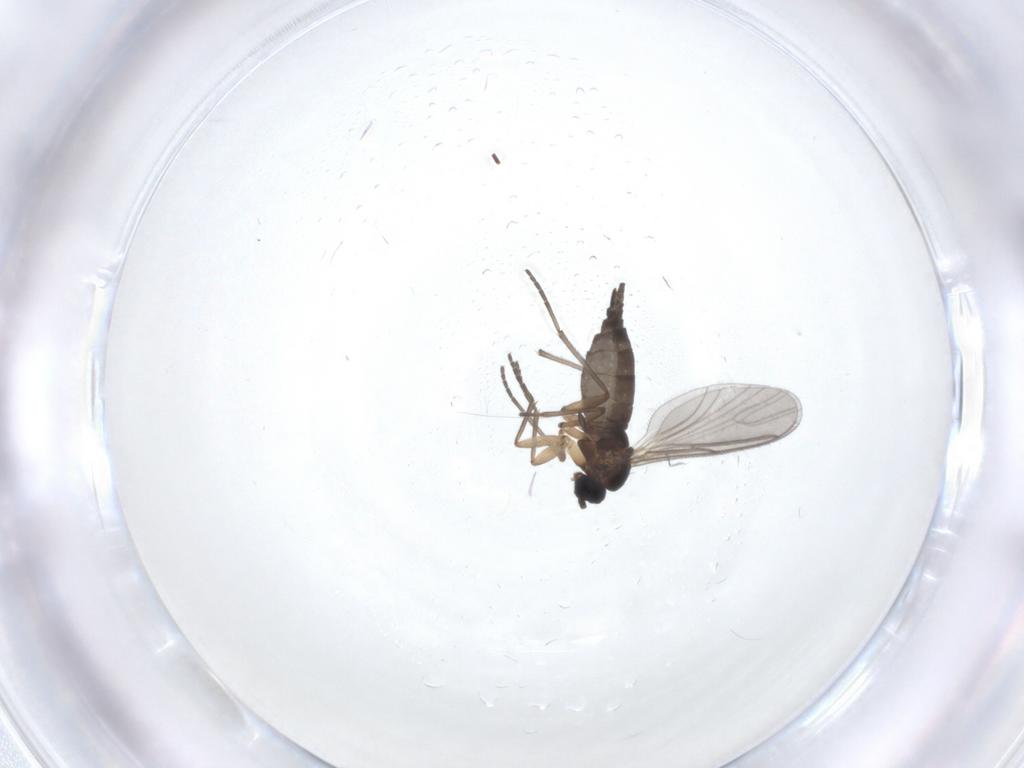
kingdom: Animalia
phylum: Arthropoda
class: Insecta
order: Diptera
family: Sciaridae
